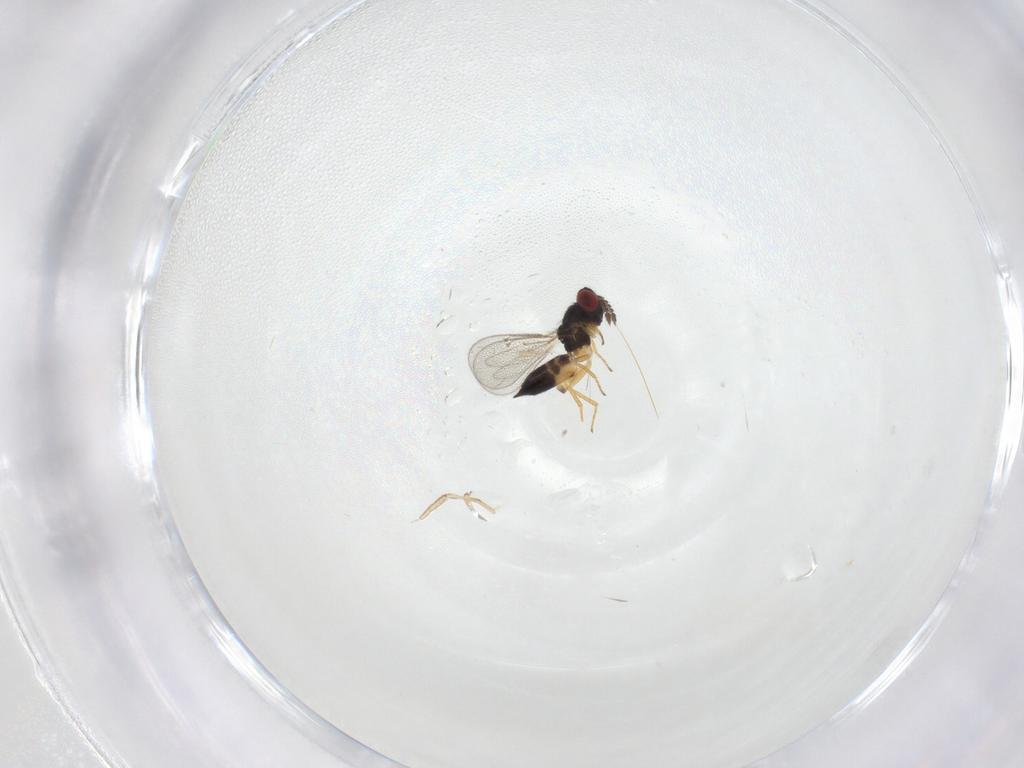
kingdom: Animalia
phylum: Arthropoda
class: Insecta
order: Hymenoptera
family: Eulophidae
